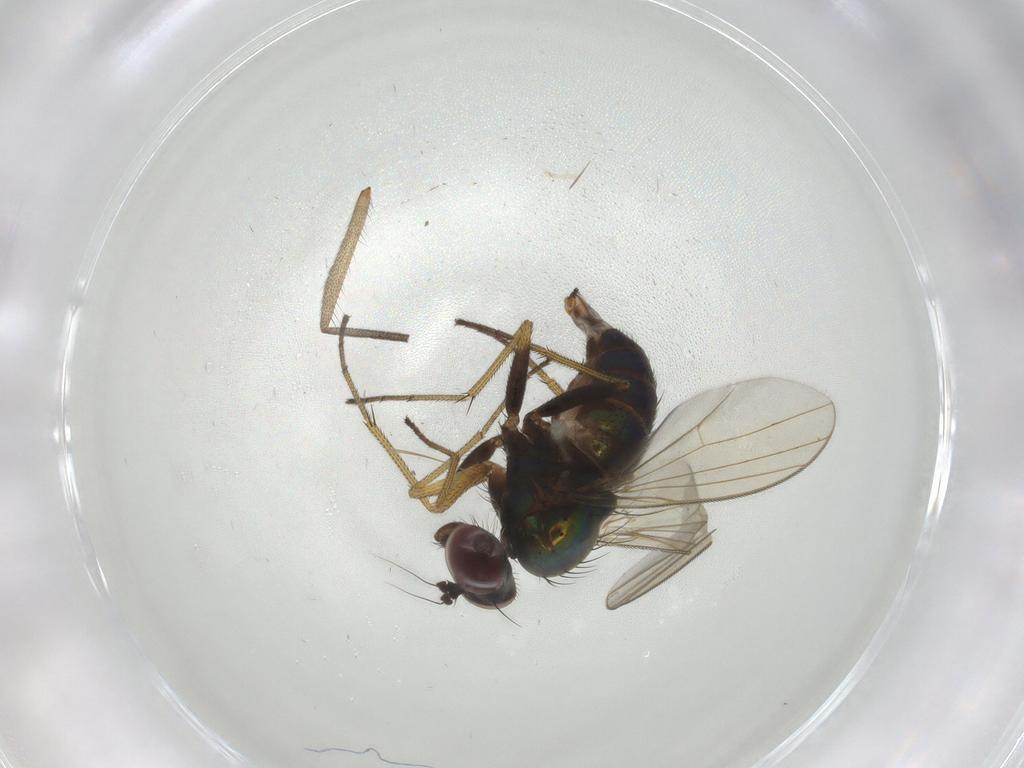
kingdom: Animalia
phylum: Arthropoda
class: Insecta
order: Diptera
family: Dolichopodidae
